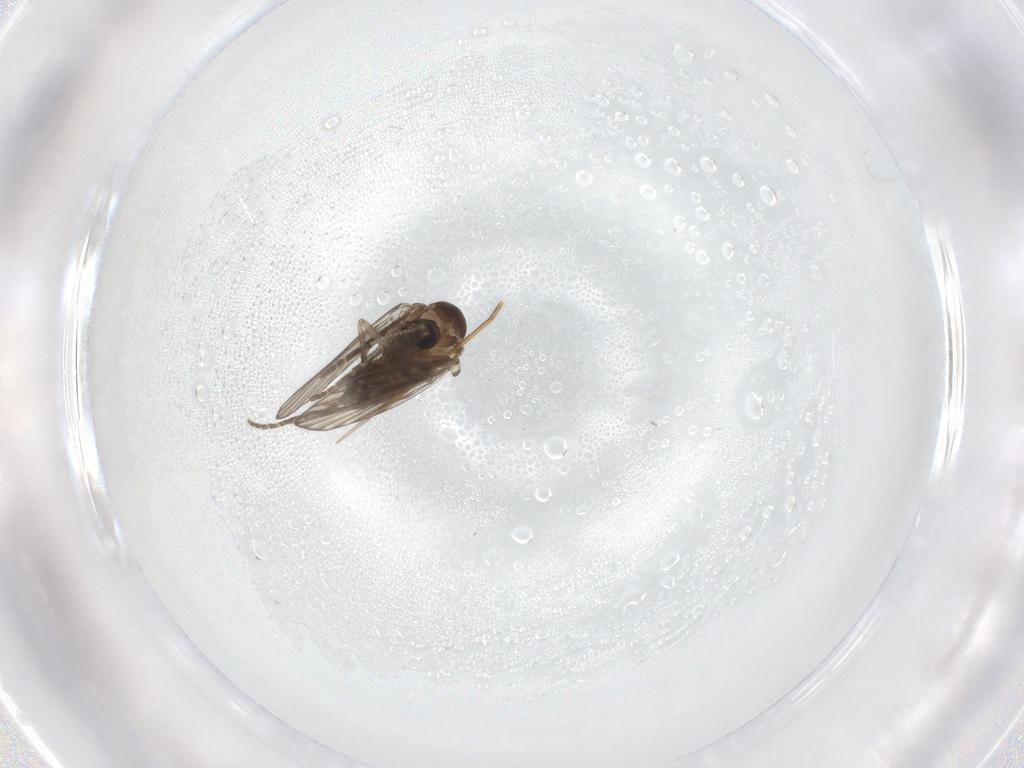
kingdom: Animalia
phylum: Arthropoda
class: Insecta
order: Diptera
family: Psychodidae
